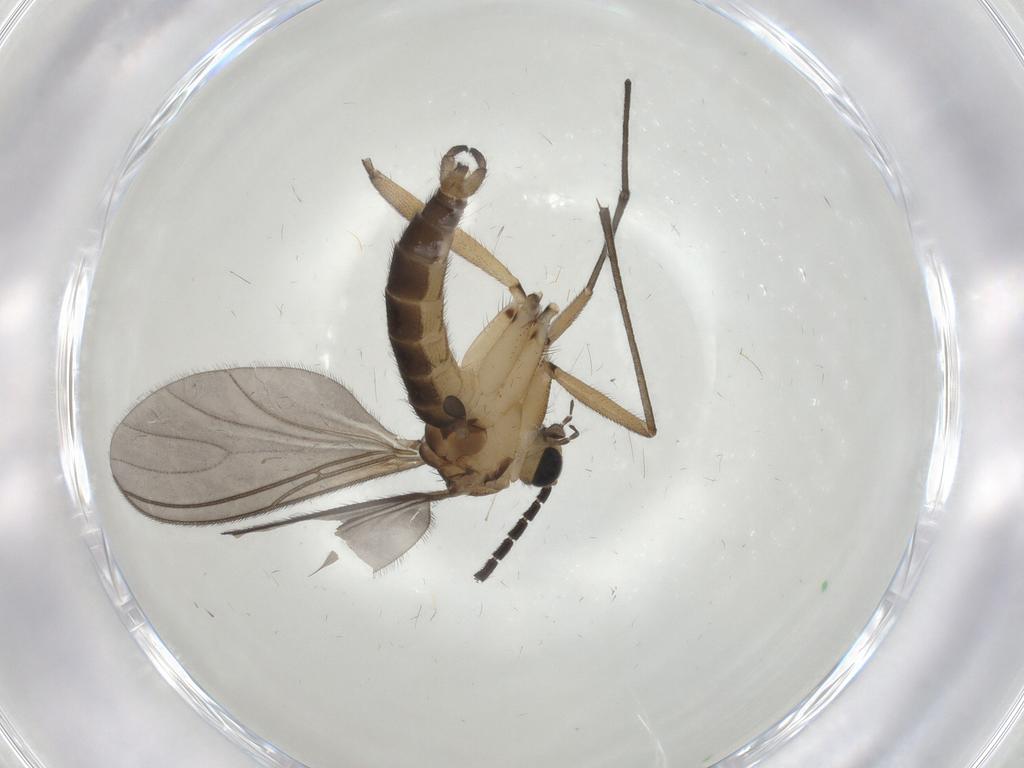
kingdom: Animalia
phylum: Arthropoda
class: Insecta
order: Diptera
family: Sciaridae
